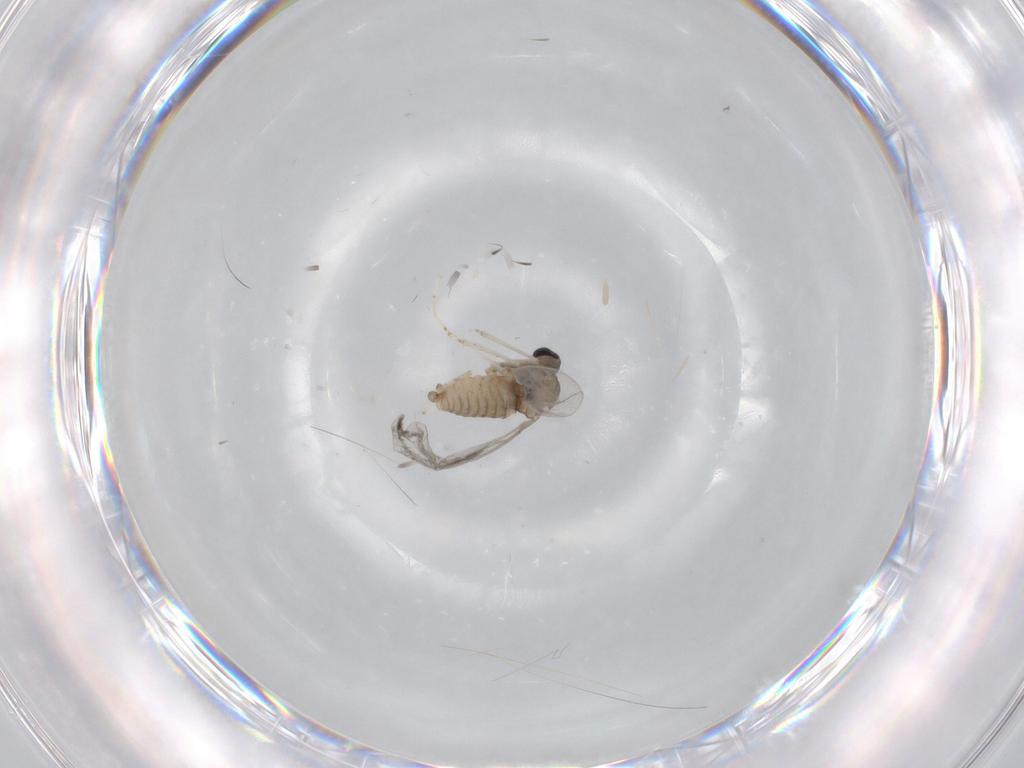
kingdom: Animalia
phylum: Arthropoda
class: Insecta
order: Diptera
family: Cecidomyiidae
